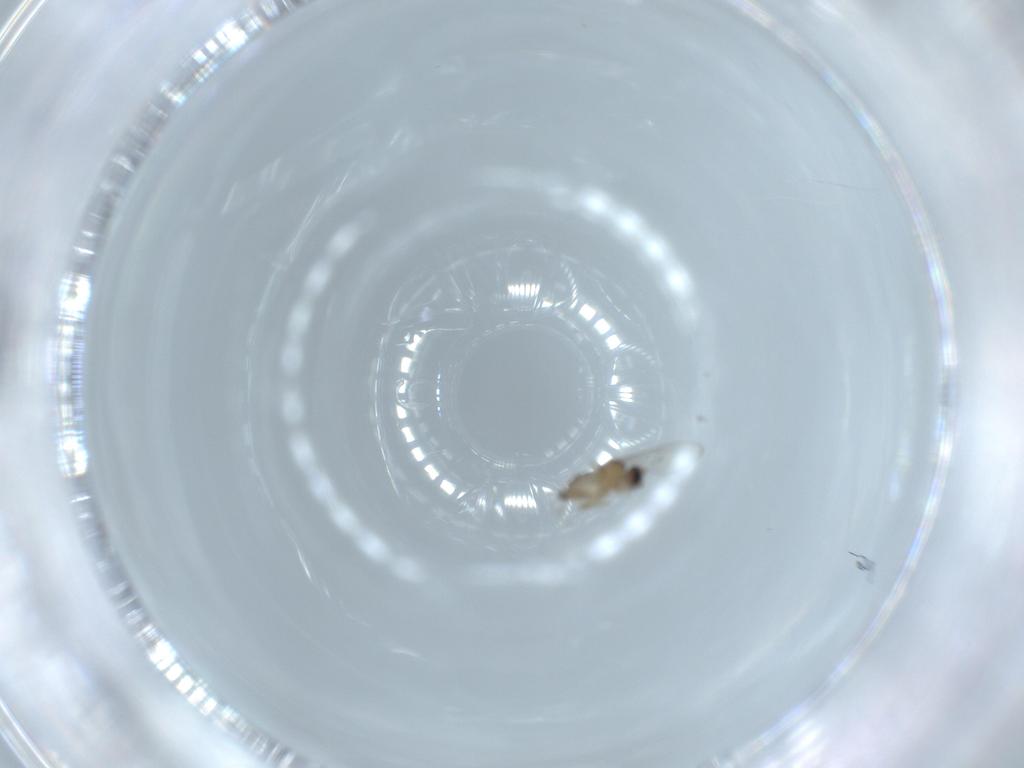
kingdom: Animalia
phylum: Arthropoda
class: Insecta
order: Diptera
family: Cecidomyiidae
